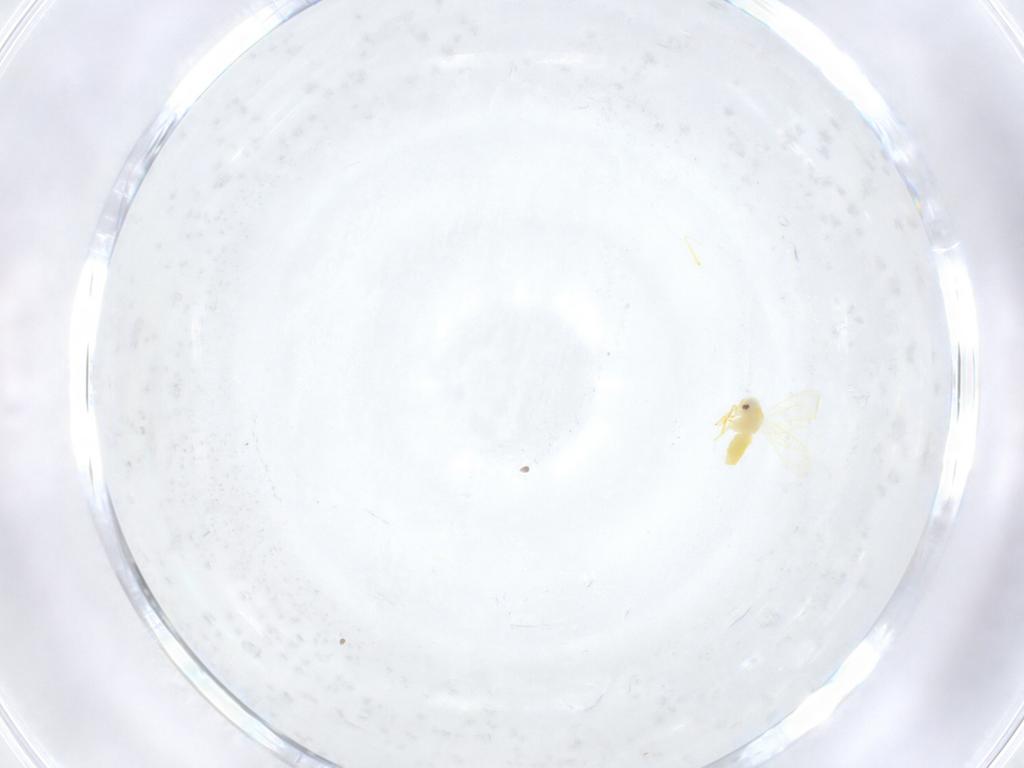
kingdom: Animalia
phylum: Arthropoda
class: Insecta
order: Hemiptera
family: Aleyrodidae
